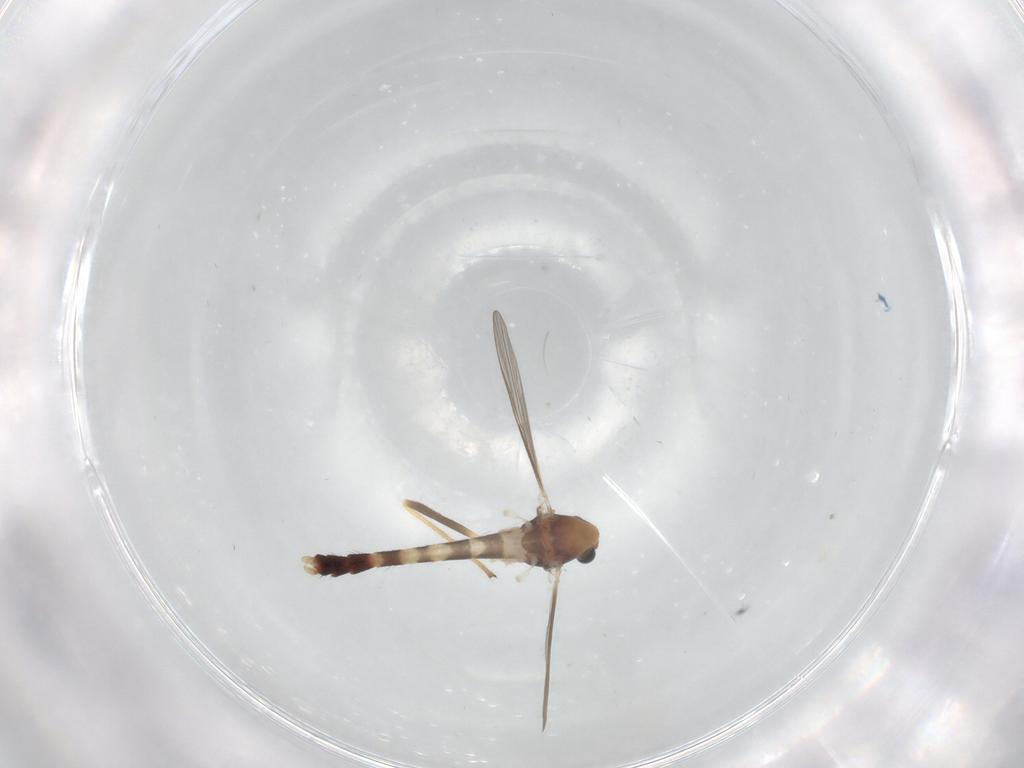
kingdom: Animalia
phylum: Arthropoda
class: Insecta
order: Diptera
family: Chironomidae
